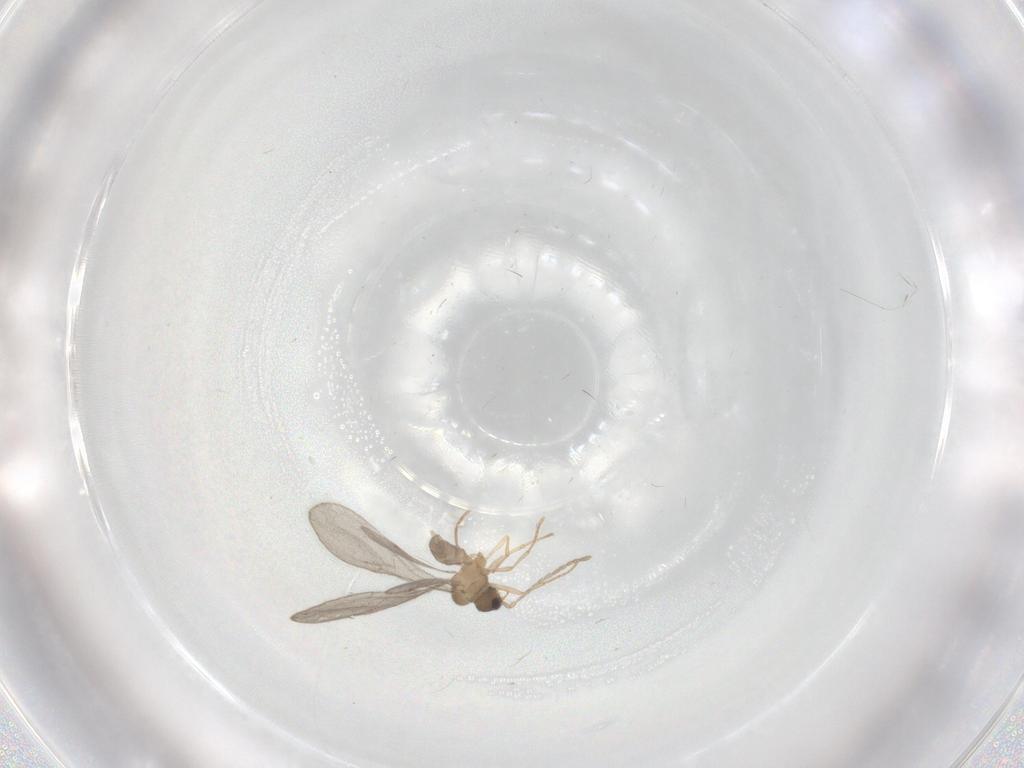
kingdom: Animalia
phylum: Arthropoda
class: Insecta
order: Hymenoptera
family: Formicidae
